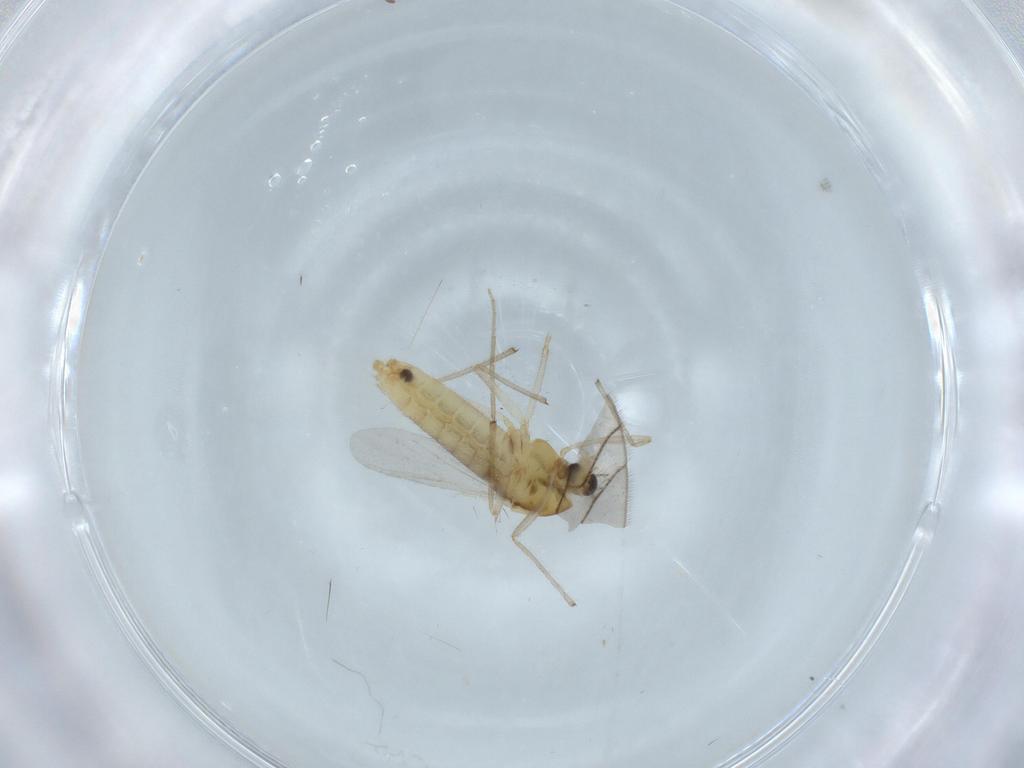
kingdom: Animalia
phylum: Arthropoda
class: Insecta
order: Diptera
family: Chironomidae
